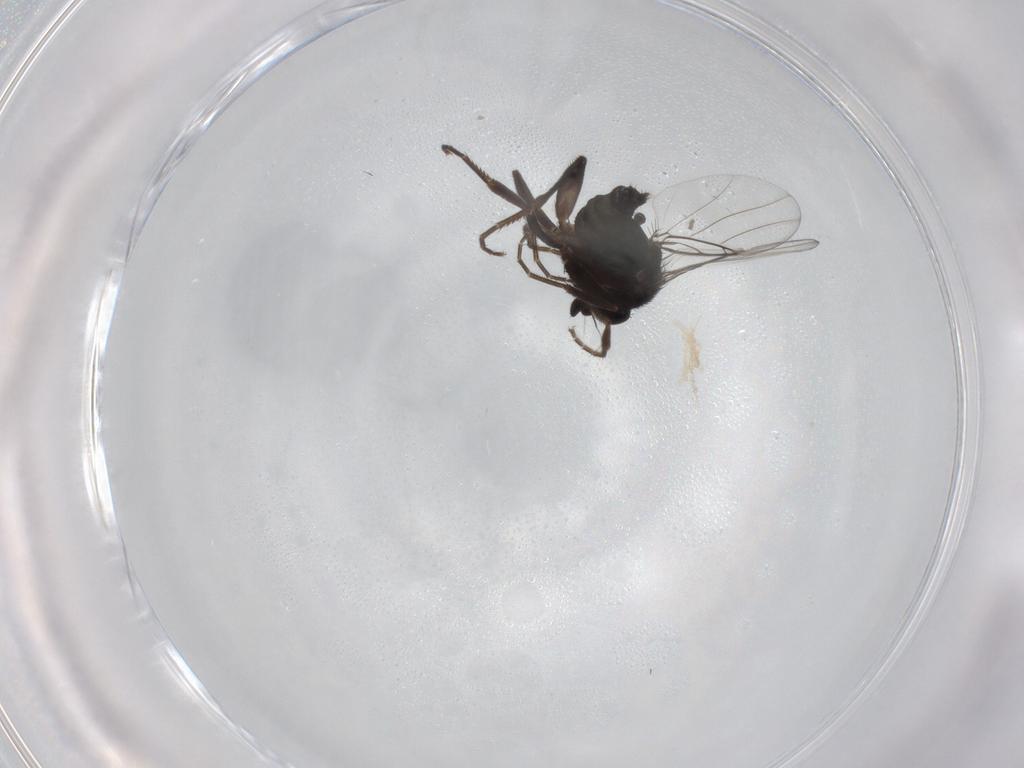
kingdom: Animalia
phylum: Arthropoda
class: Insecta
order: Diptera
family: Phoridae
